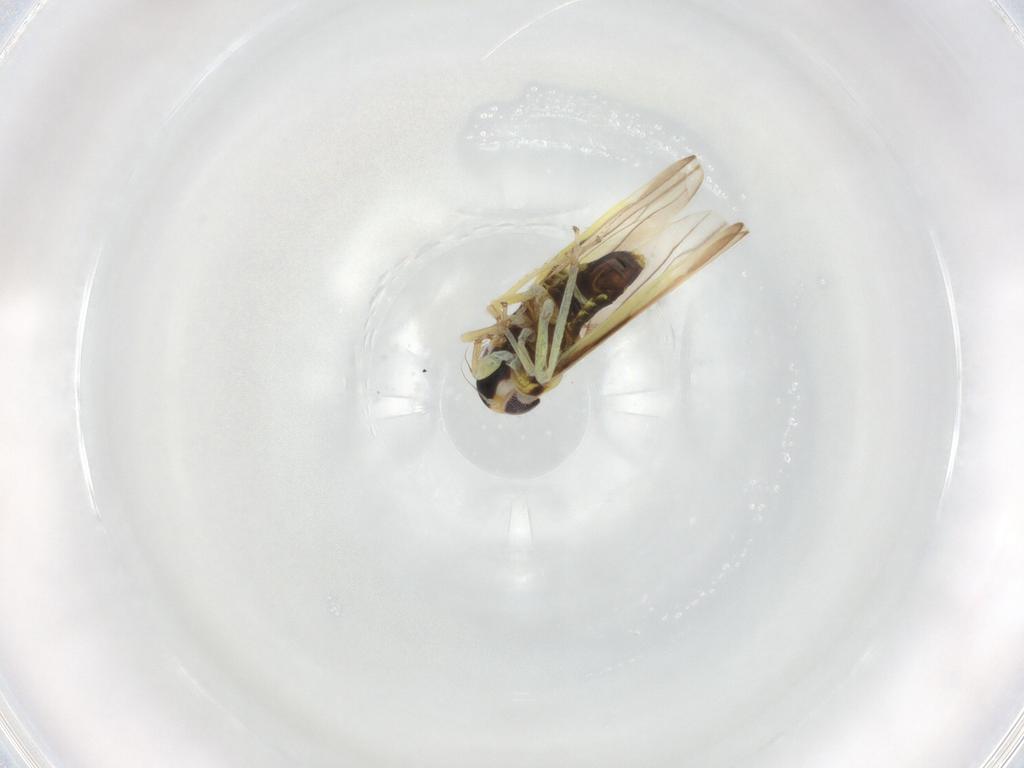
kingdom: Animalia
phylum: Arthropoda
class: Insecta
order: Hemiptera
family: Cicadellidae
